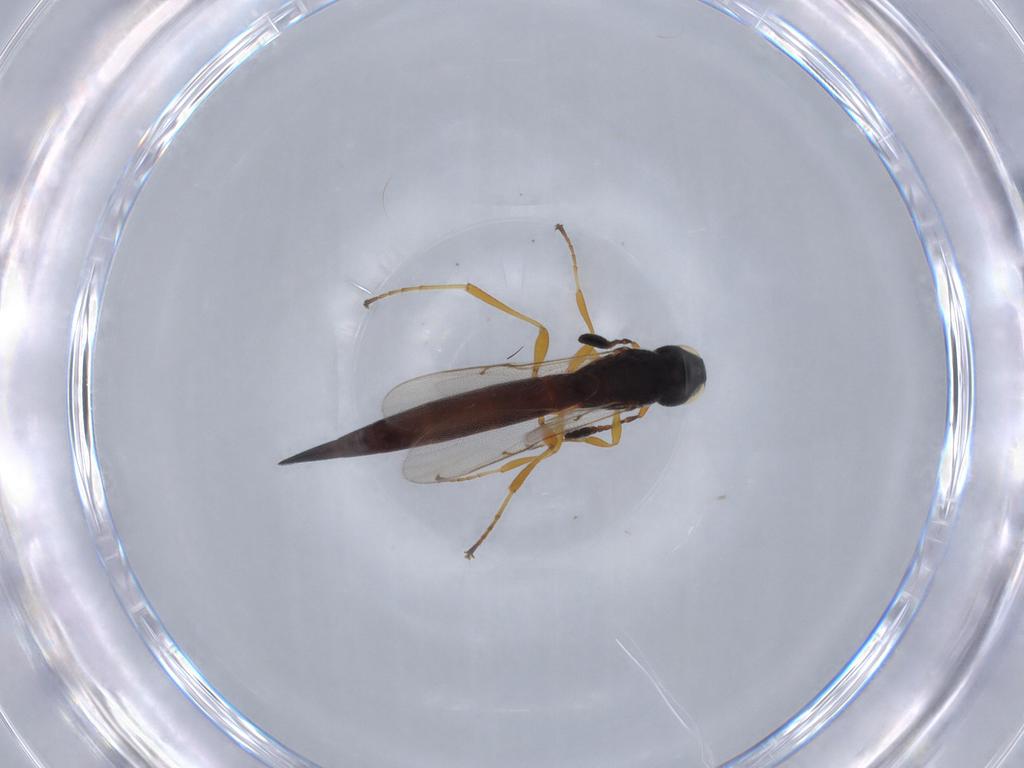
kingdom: Animalia
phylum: Arthropoda
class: Insecta
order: Hymenoptera
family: Scelionidae
